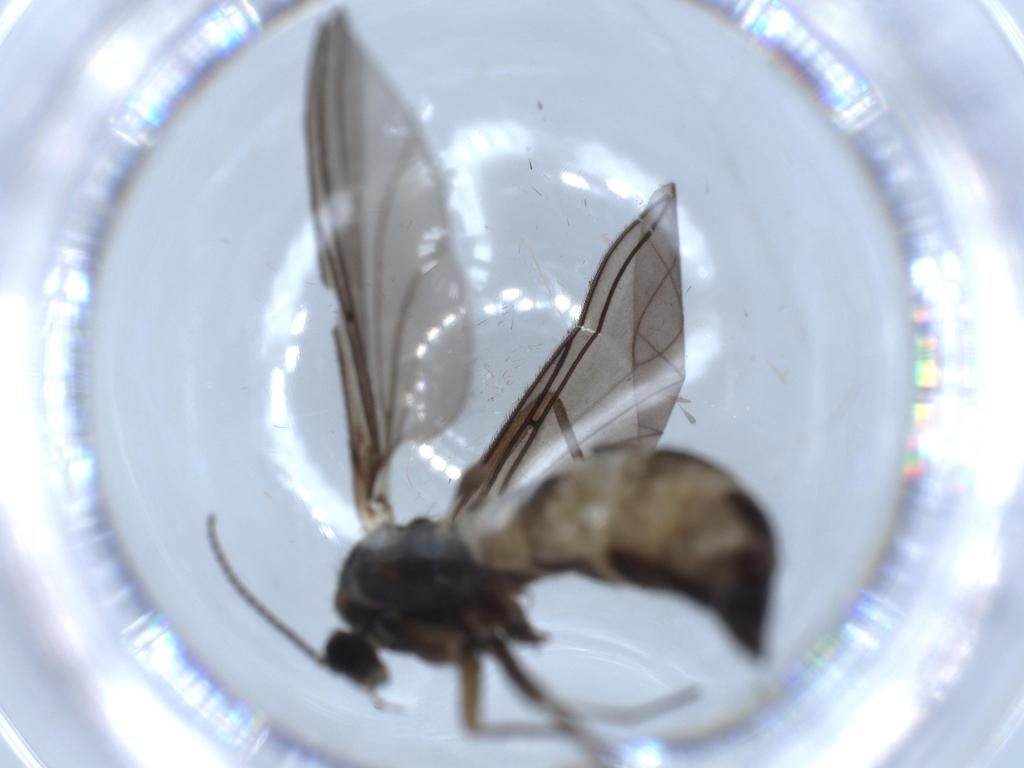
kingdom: Animalia
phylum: Arthropoda
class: Insecta
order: Diptera
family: Sciaridae
